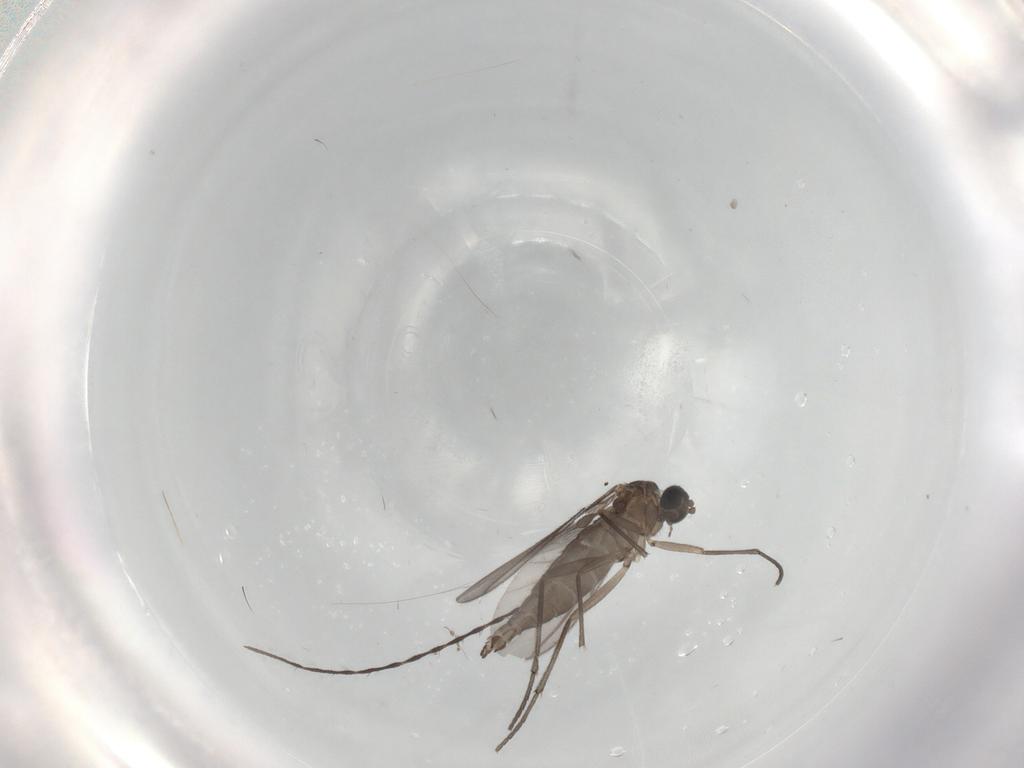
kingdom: Animalia
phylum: Arthropoda
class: Insecta
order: Diptera
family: Limoniidae
